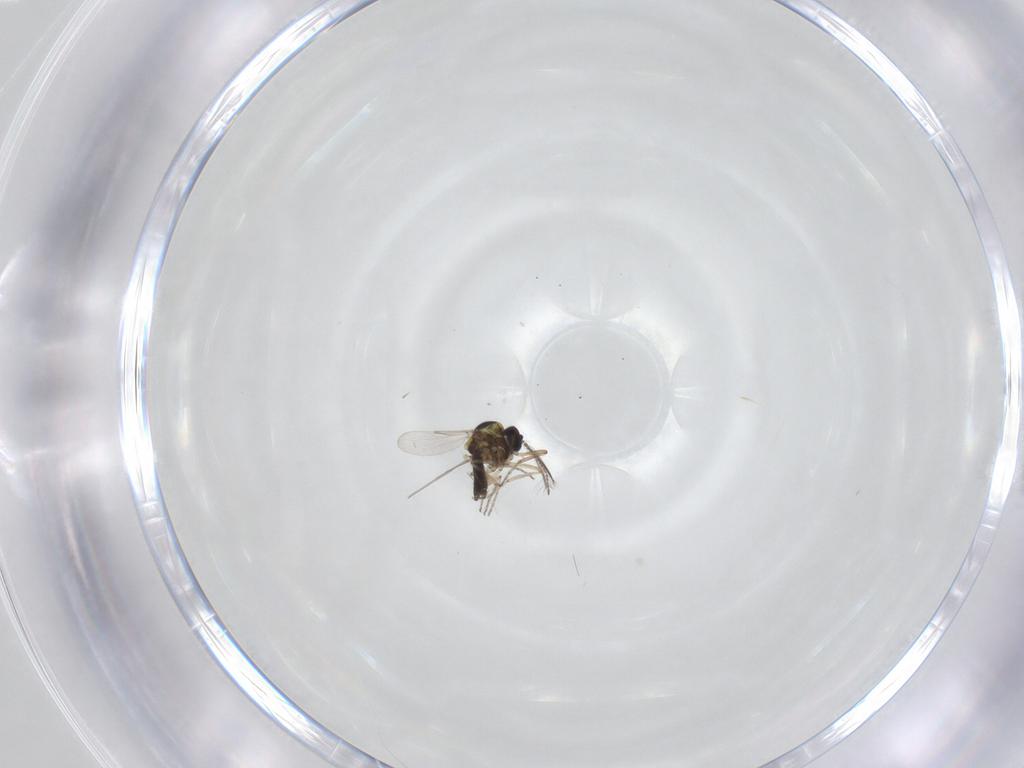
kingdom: Animalia
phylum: Arthropoda
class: Insecta
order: Diptera
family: Ceratopogonidae
